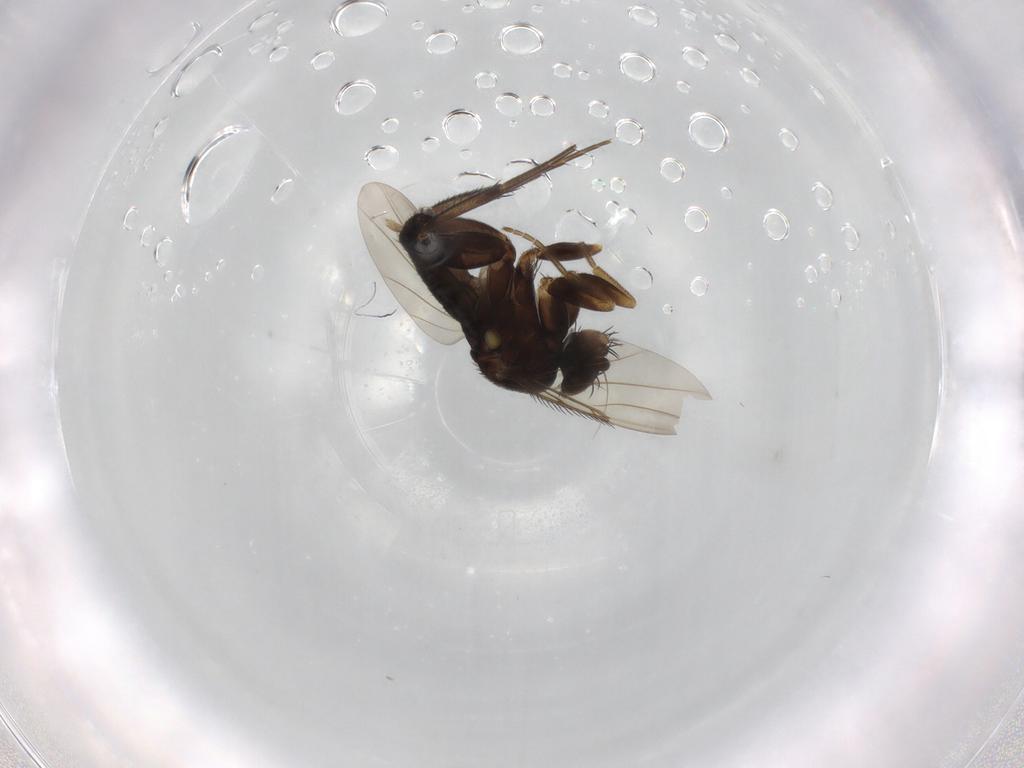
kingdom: Animalia
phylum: Arthropoda
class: Insecta
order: Diptera
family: Phoridae
